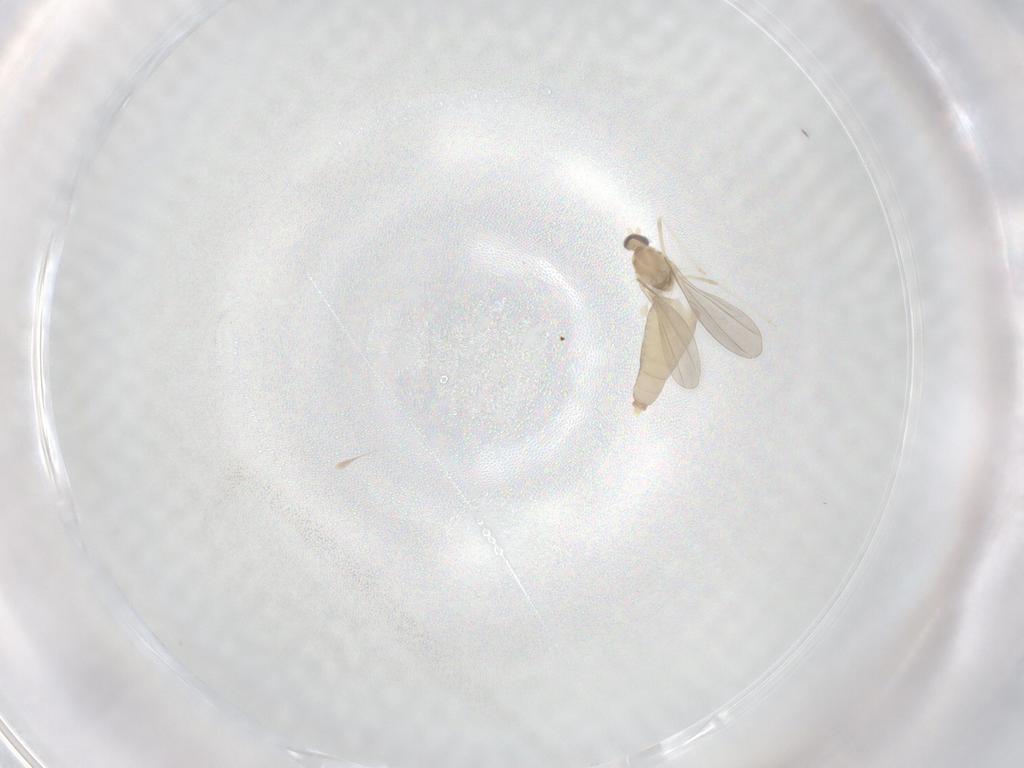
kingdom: Animalia
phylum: Arthropoda
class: Insecta
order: Diptera
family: Cecidomyiidae
